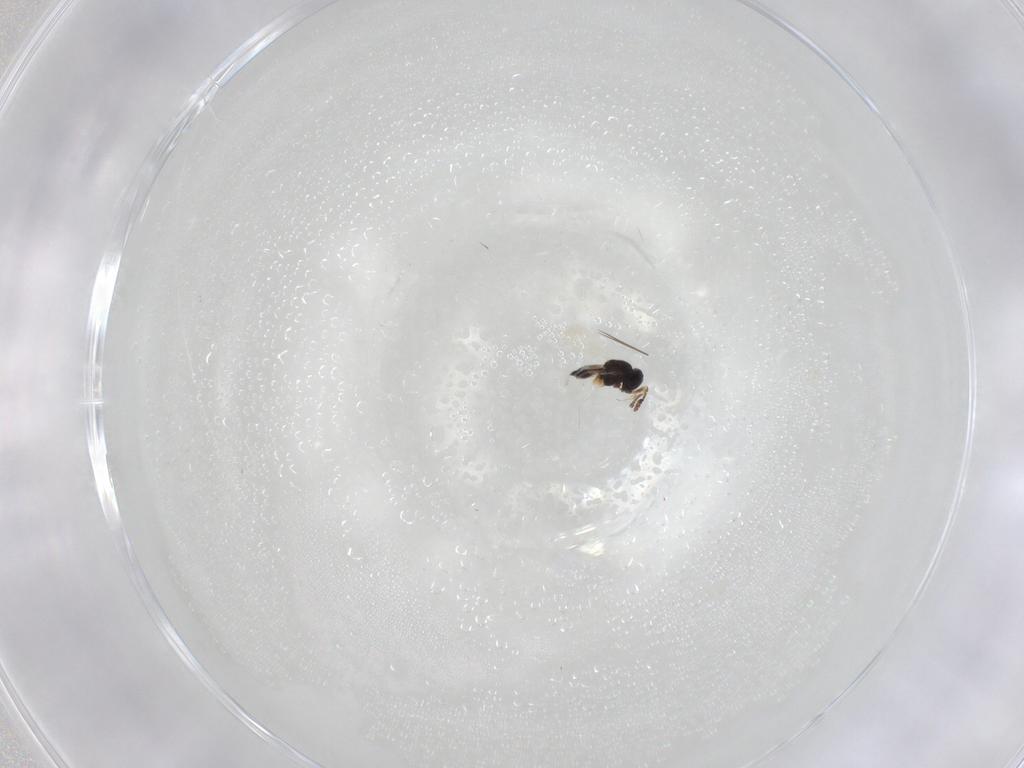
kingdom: Animalia
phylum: Arthropoda
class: Insecta
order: Hymenoptera
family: Scelionidae
